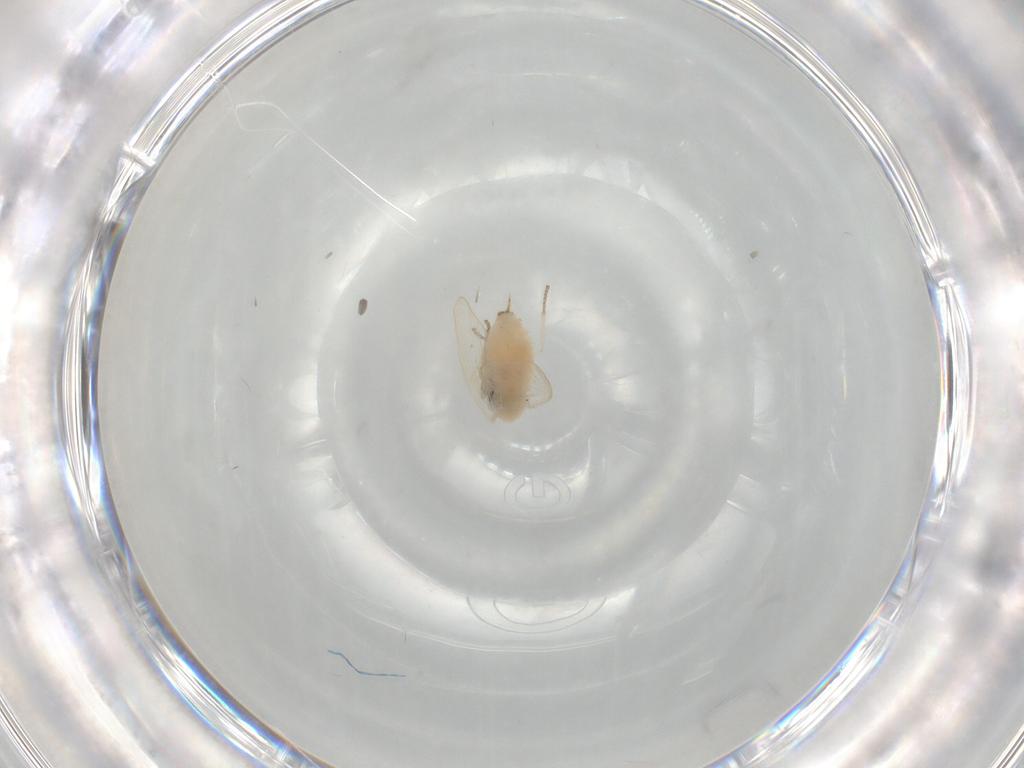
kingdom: Animalia
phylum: Arthropoda
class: Insecta
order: Diptera
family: Psychodidae
